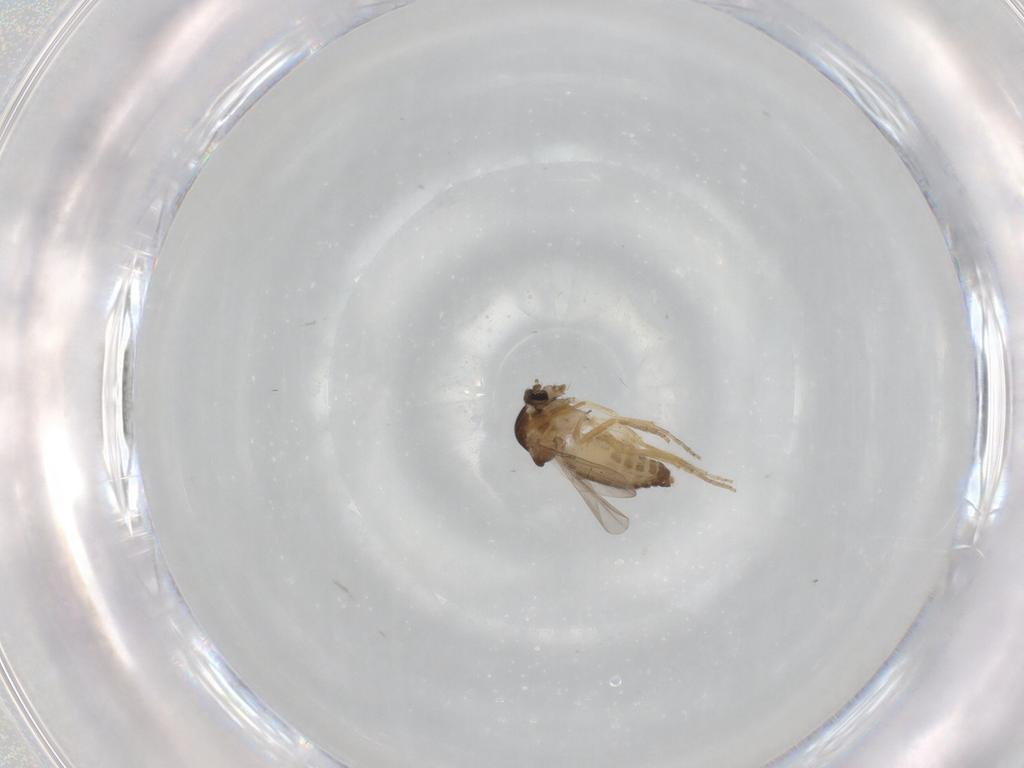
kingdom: Animalia
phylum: Arthropoda
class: Insecta
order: Diptera
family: Ceratopogonidae
